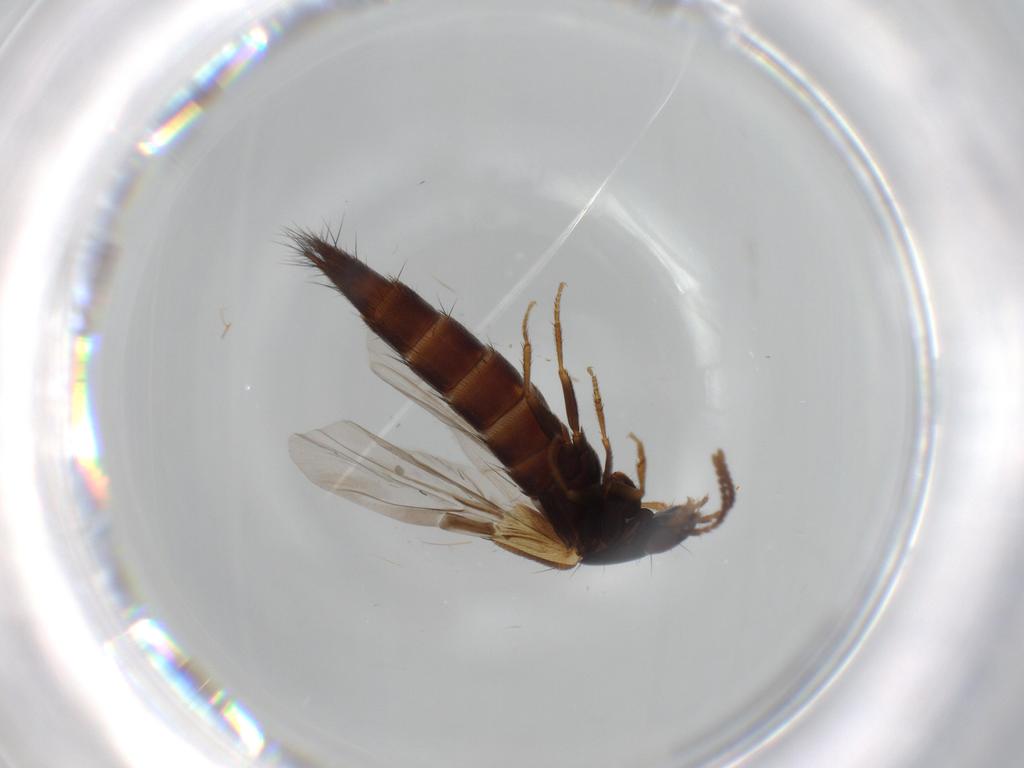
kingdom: Animalia
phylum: Arthropoda
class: Insecta
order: Coleoptera
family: Staphylinidae
